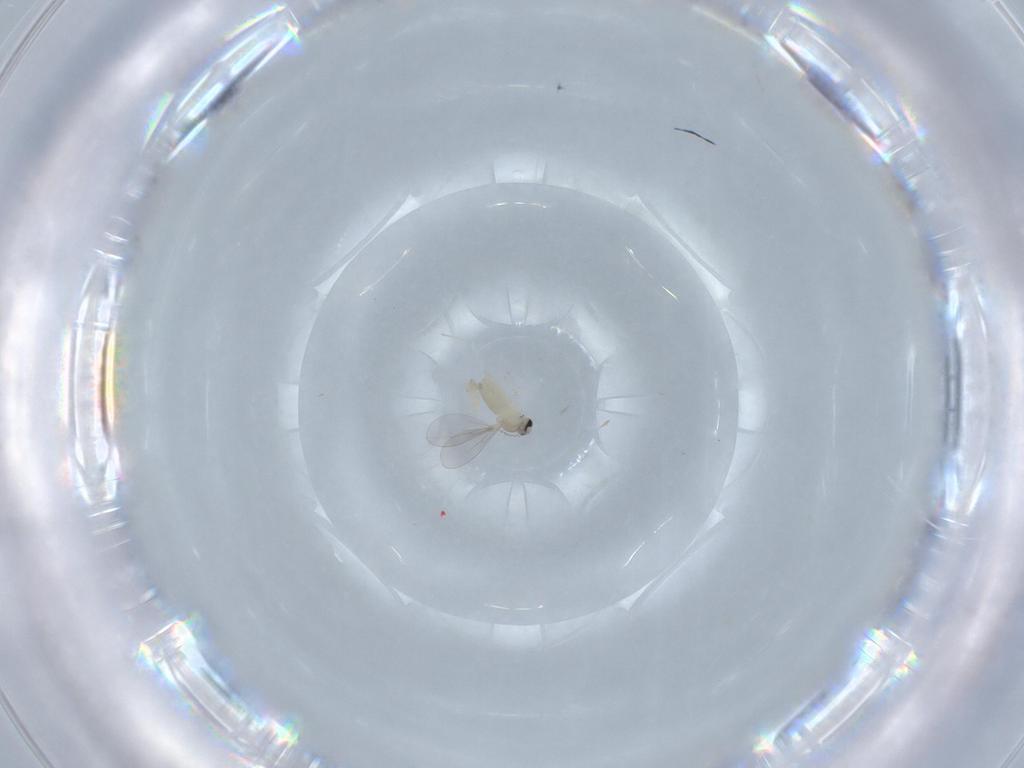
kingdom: Animalia
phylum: Arthropoda
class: Insecta
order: Diptera
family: Cecidomyiidae
